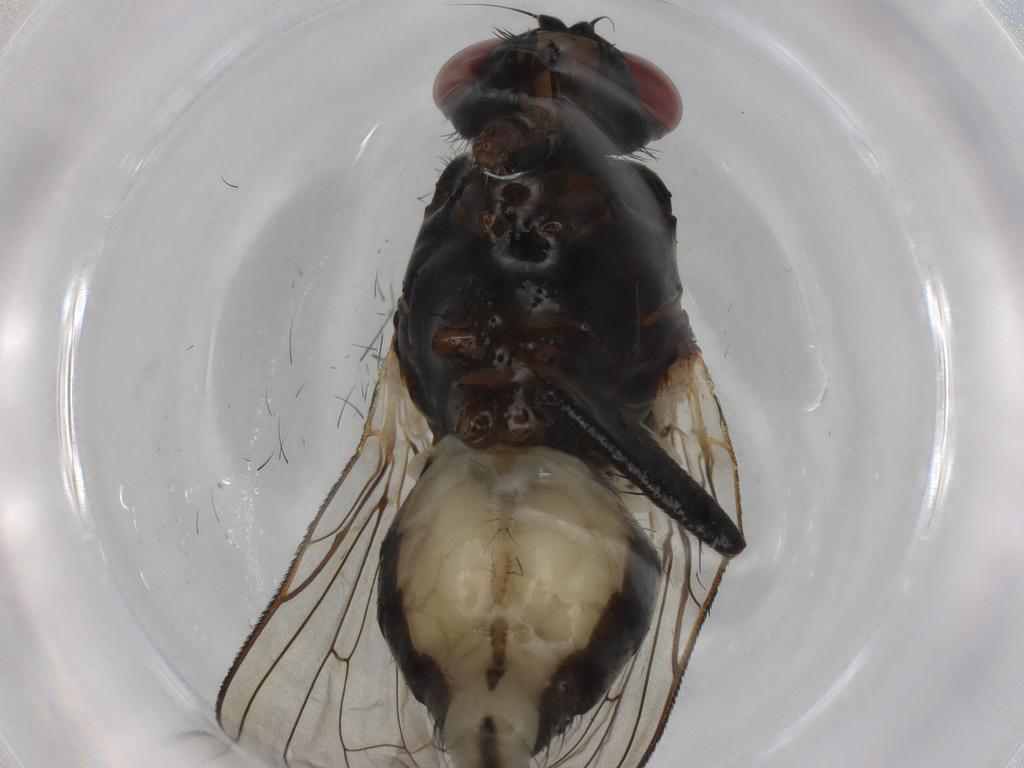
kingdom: Animalia
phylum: Arthropoda
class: Insecta
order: Diptera
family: Anthomyiidae
